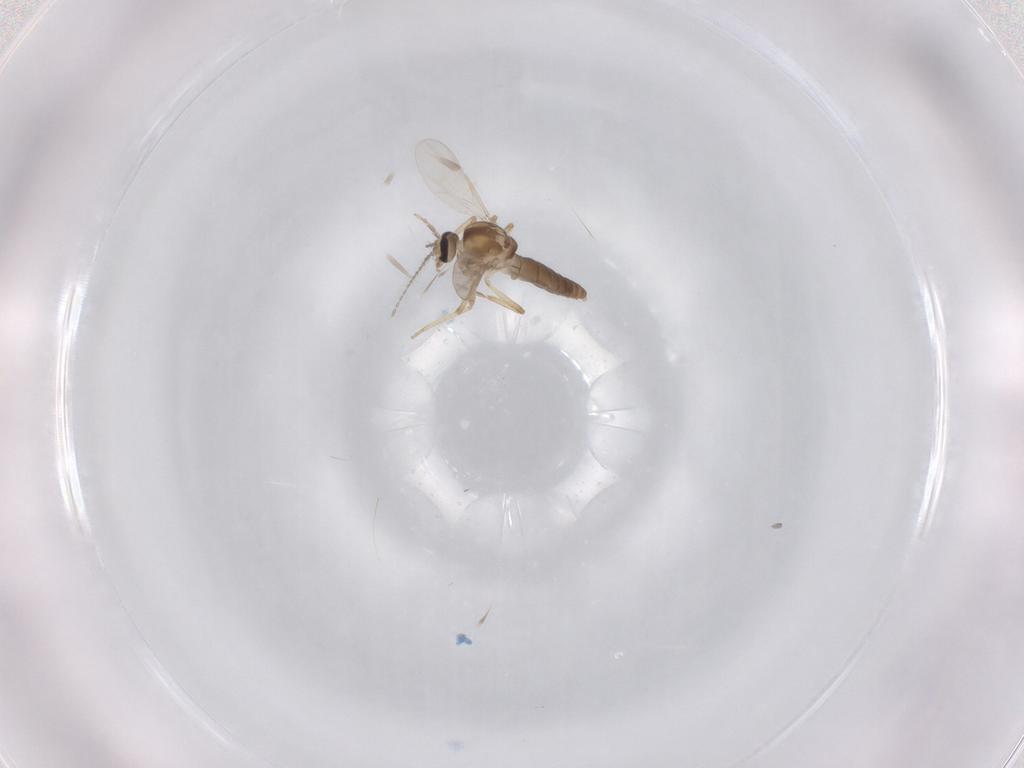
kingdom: Animalia
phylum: Arthropoda
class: Insecta
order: Diptera
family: Ceratopogonidae
